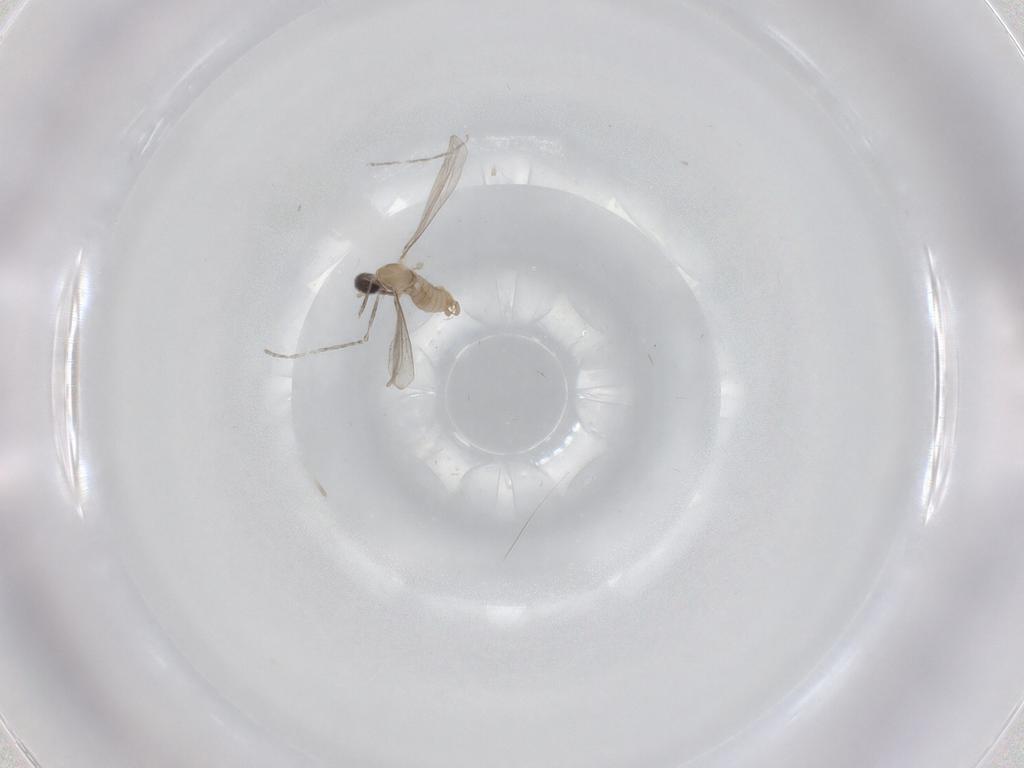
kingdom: Animalia
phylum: Arthropoda
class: Insecta
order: Diptera
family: Cecidomyiidae
